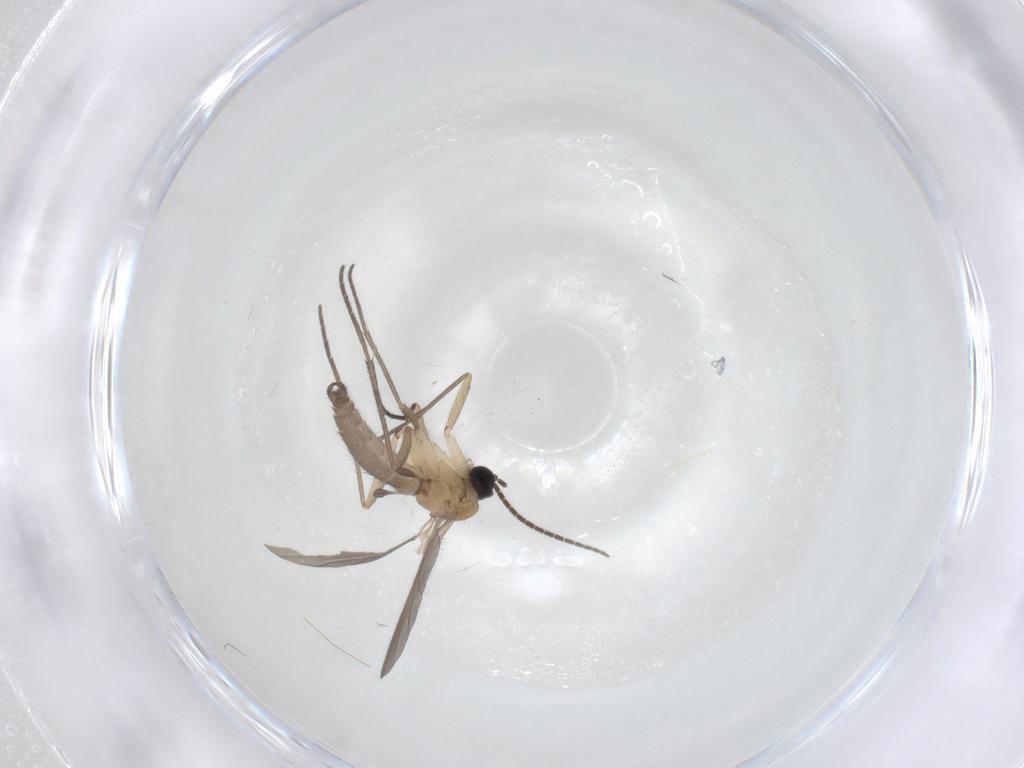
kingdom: Animalia
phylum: Arthropoda
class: Insecta
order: Diptera
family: Sciaridae
